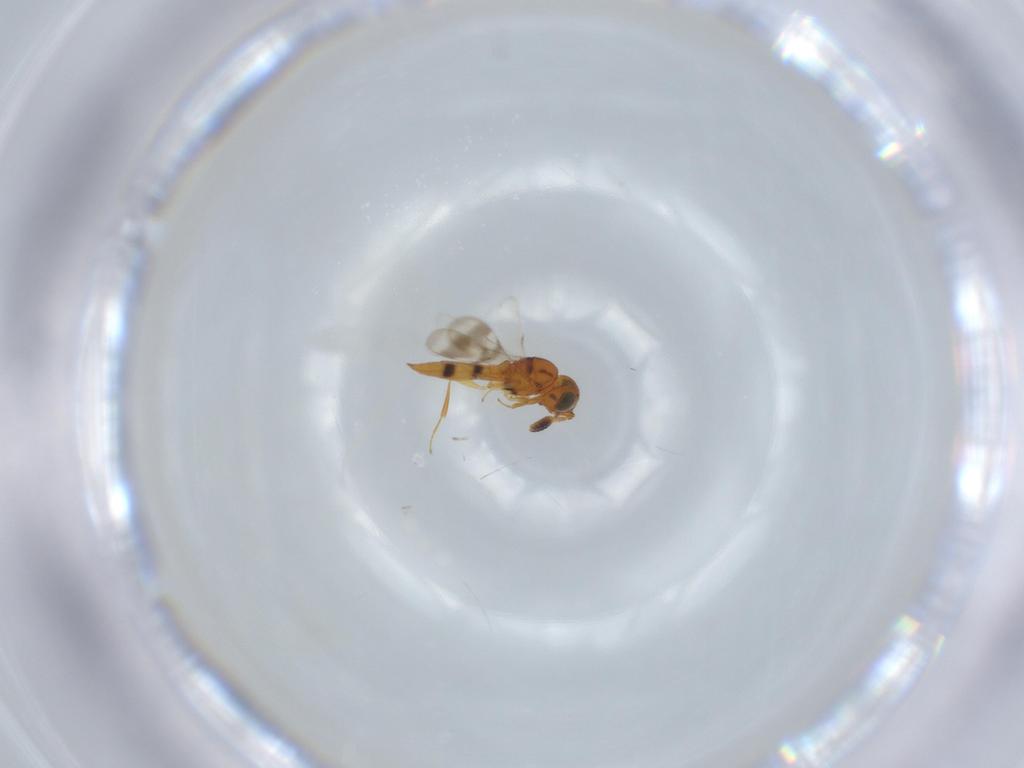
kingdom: Animalia
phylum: Arthropoda
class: Insecta
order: Hymenoptera
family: Scelionidae
